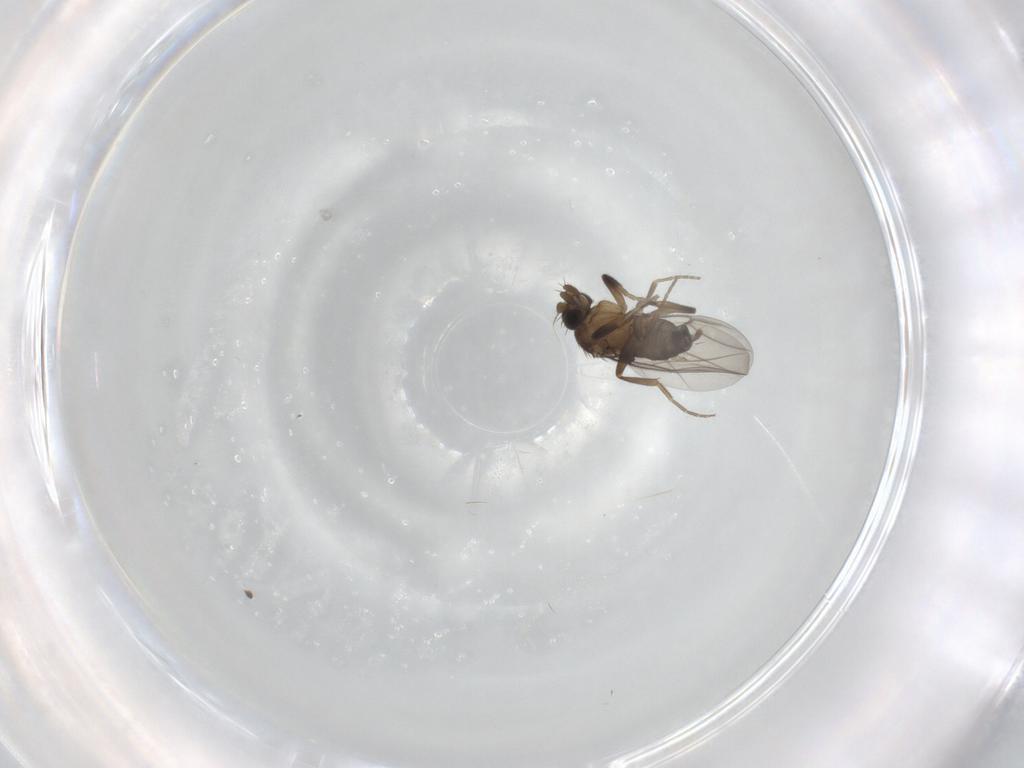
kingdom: Animalia
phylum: Arthropoda
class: Insecta
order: Diptera
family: Phoridae
